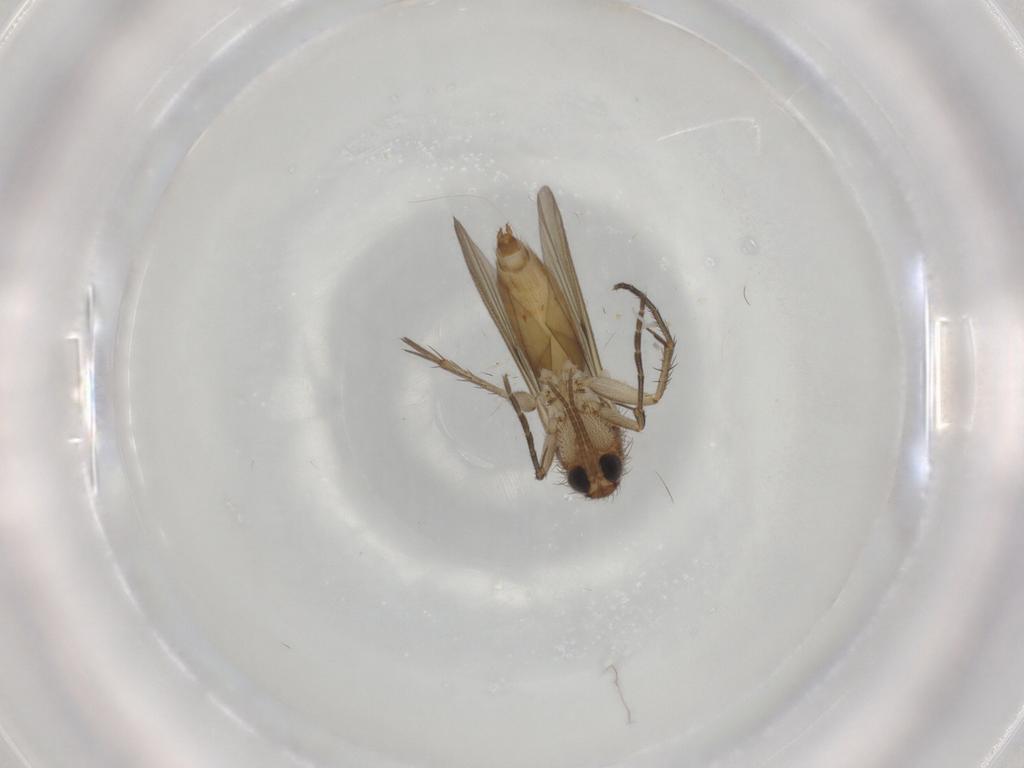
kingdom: Animalia
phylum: Arthropoda
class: Insecta
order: Diptera
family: Mycetophilidae
